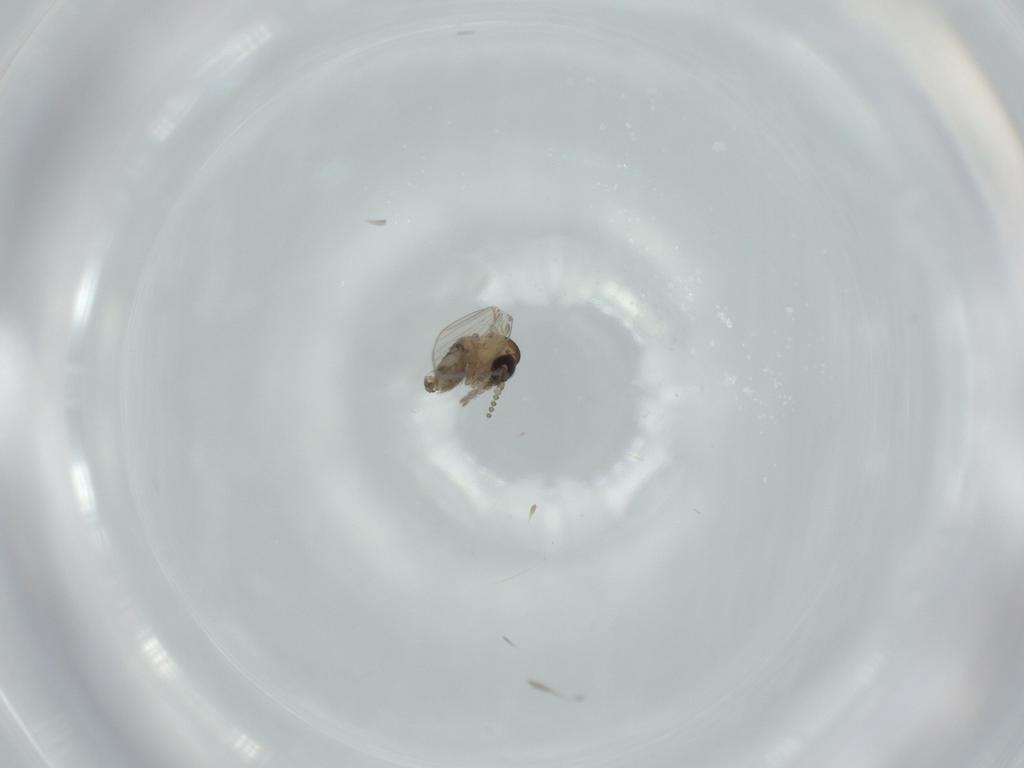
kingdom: Animalia
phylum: Arthropoda
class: Insecta
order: Diptera
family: Psychodidae
